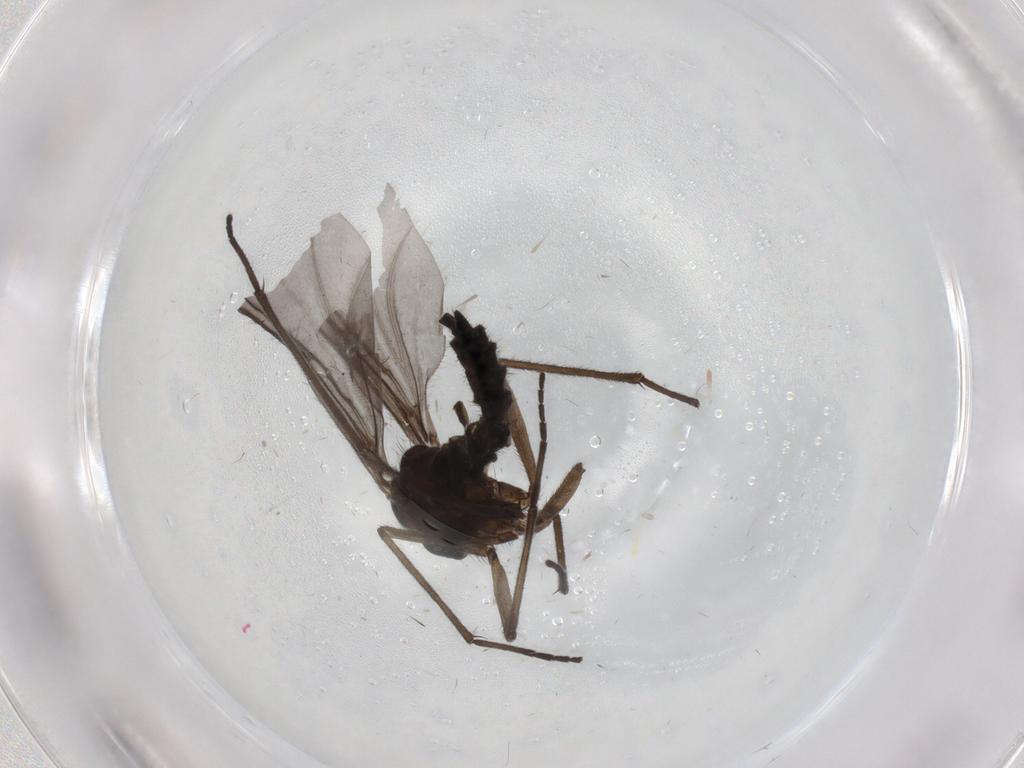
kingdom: Animalia
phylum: Arthropoda
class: Insecta
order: Diptera
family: Sciaridae
